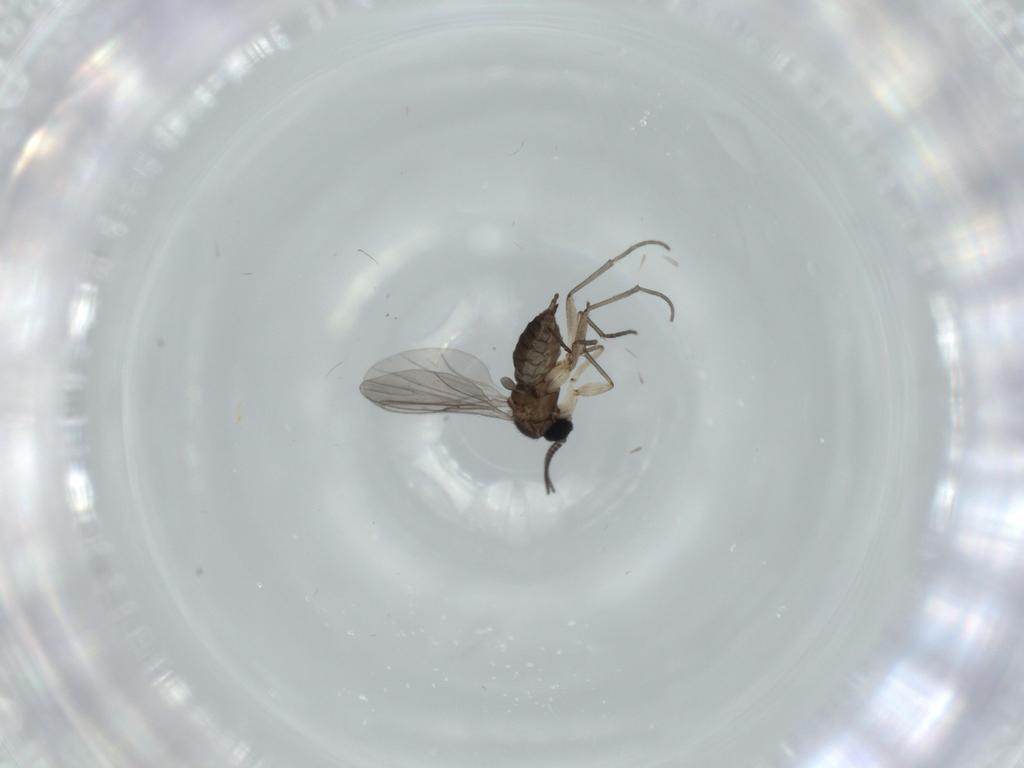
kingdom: Animalia
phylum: Arthropoda
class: Insecta
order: Diptera
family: Sciaridae
